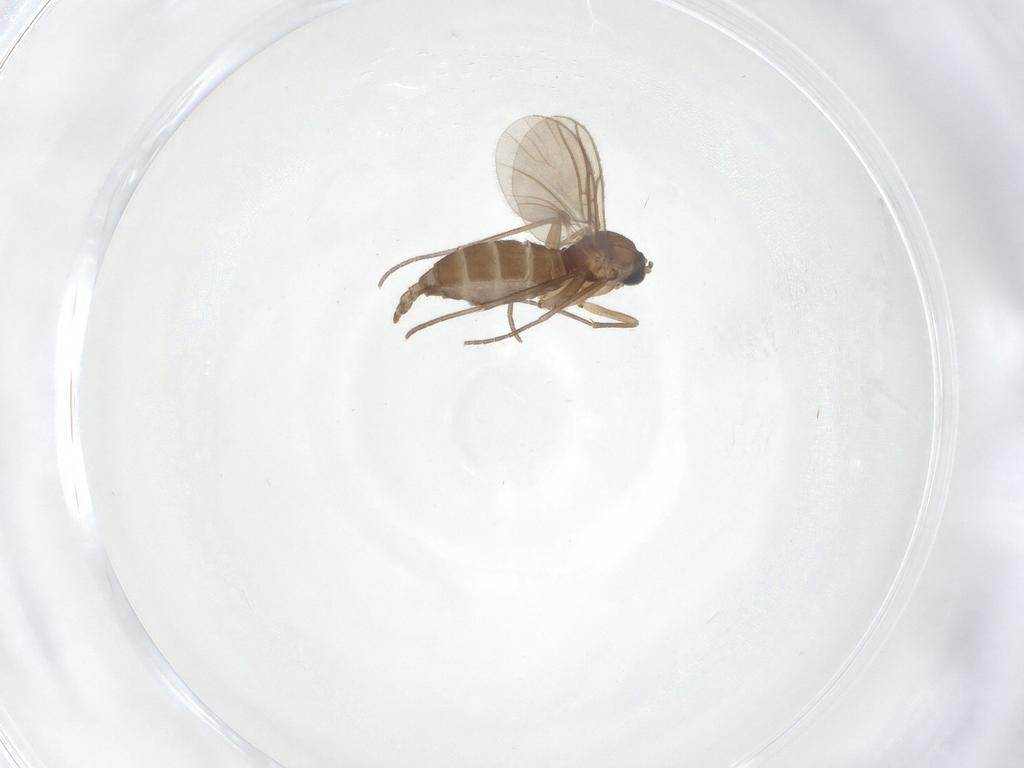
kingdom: Animalia
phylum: Arthropoda
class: Insecta
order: Diptera
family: Sciaridae
